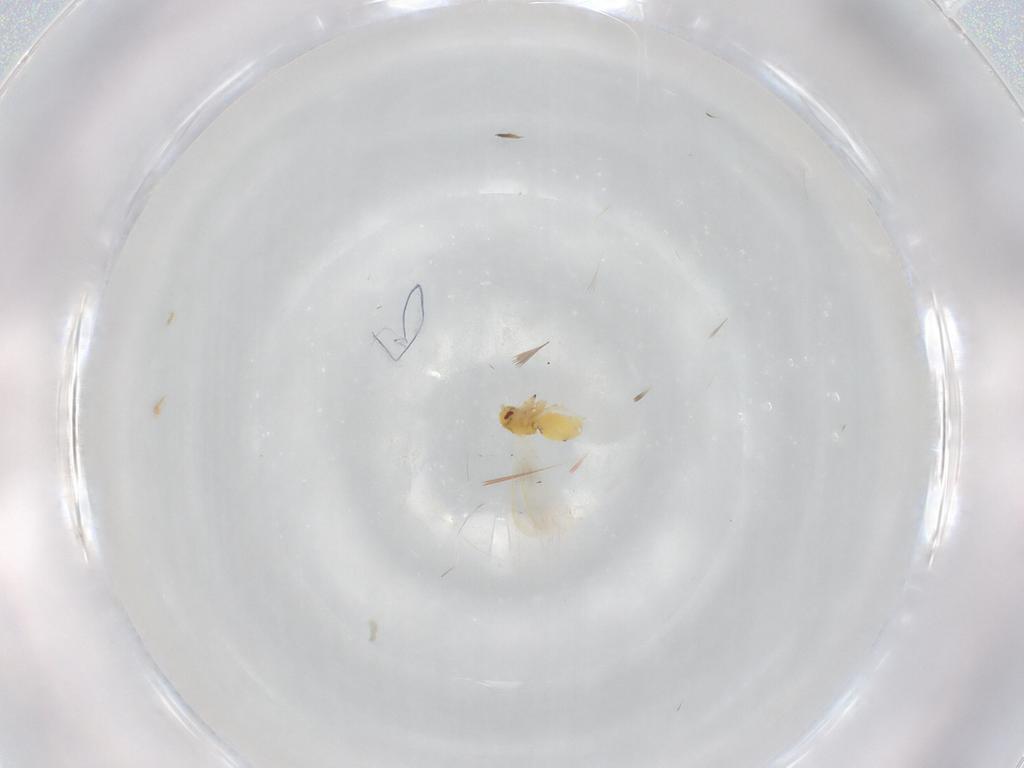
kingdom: Animalia
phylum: Arthropoda
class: Insecta
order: Hemiptera
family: Aleyrodidae
